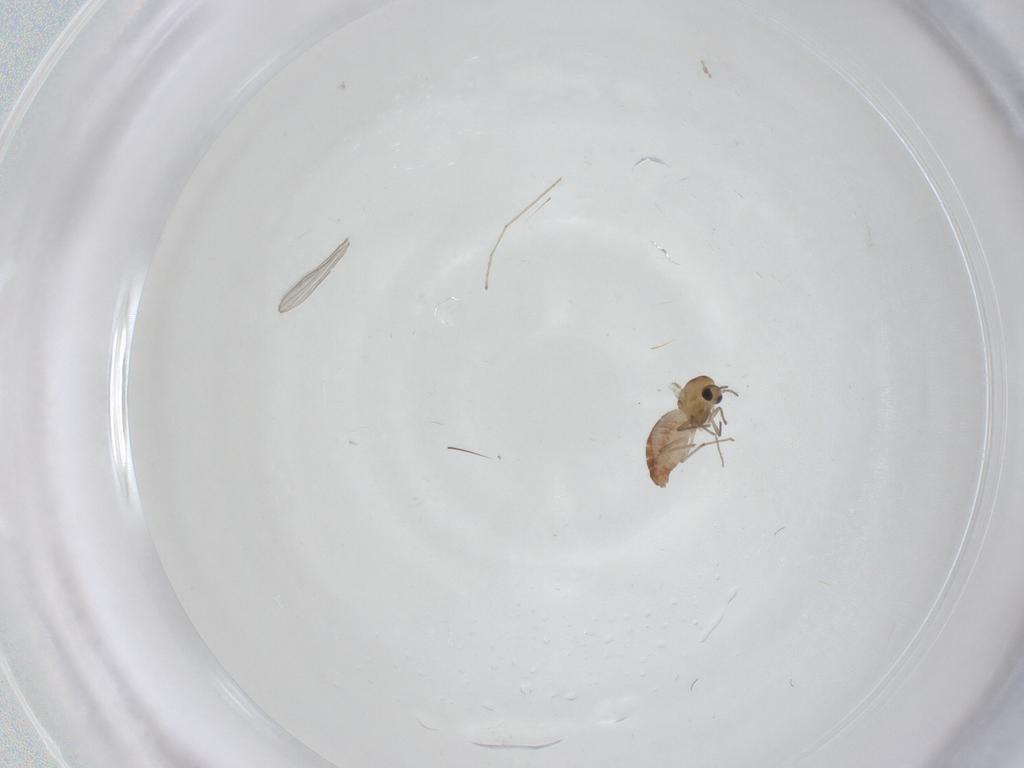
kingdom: Animalia
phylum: Arthropoda
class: Insecta
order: Diptera
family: Chironomidae
